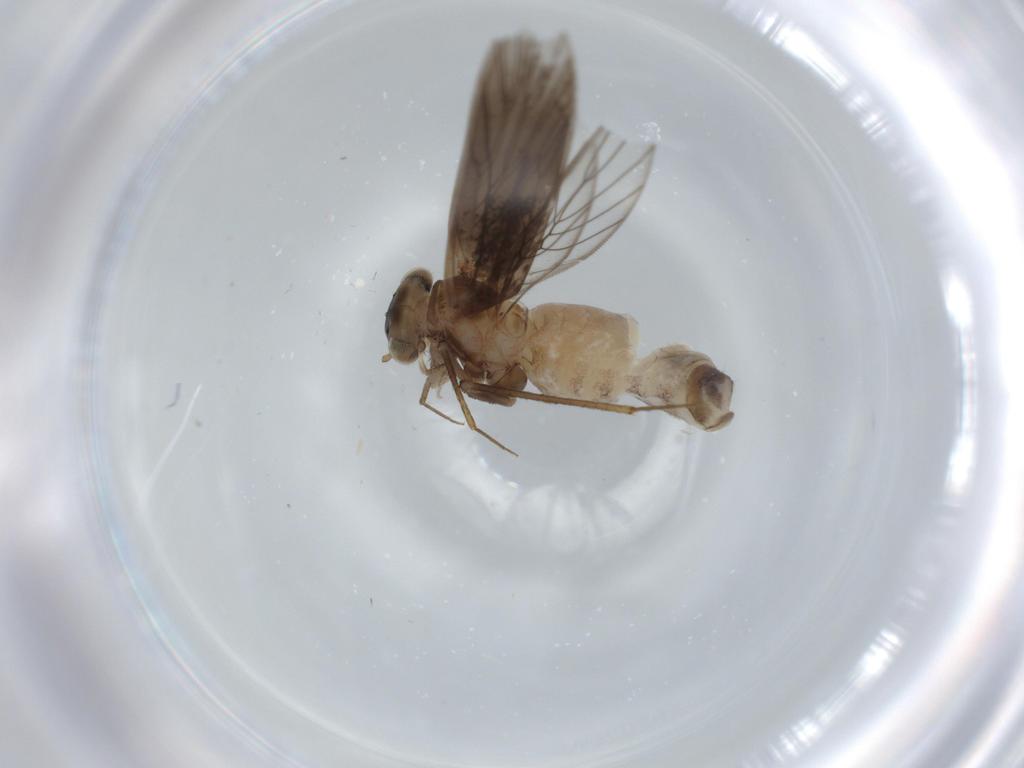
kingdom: Animalia
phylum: Arthropoda
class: Insecta
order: Psocodea
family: Lepidopsocidae
